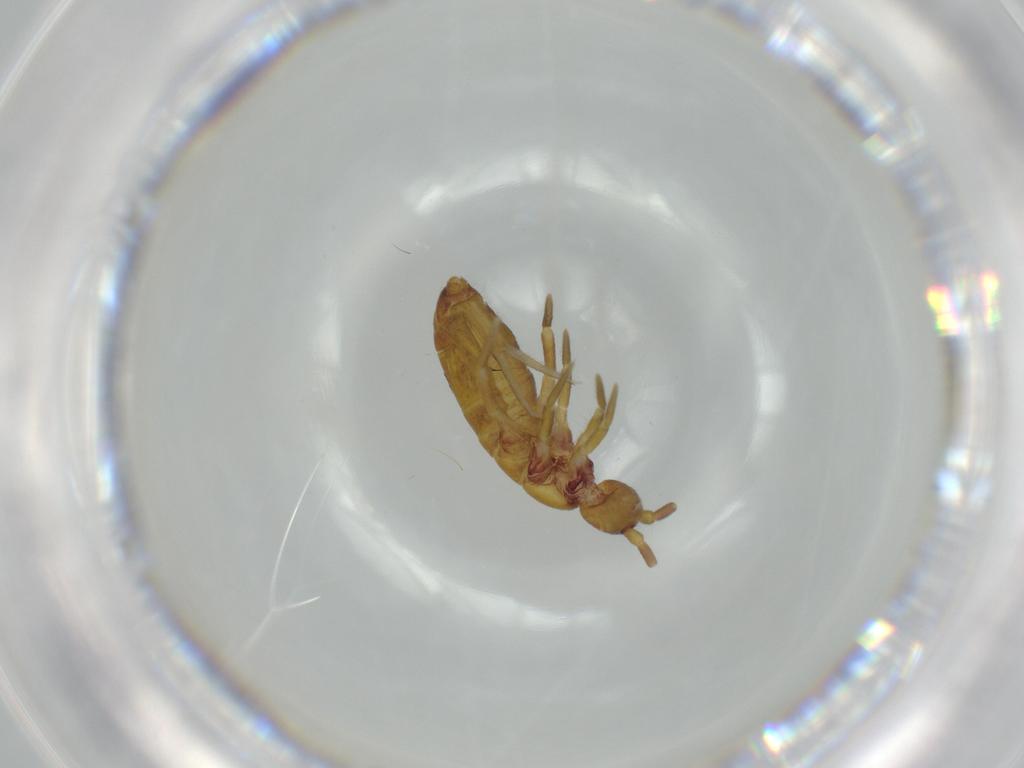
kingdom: Animalia
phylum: Arthropoda
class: Collembola
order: Entomobryomorpha
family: Tomoceridae
